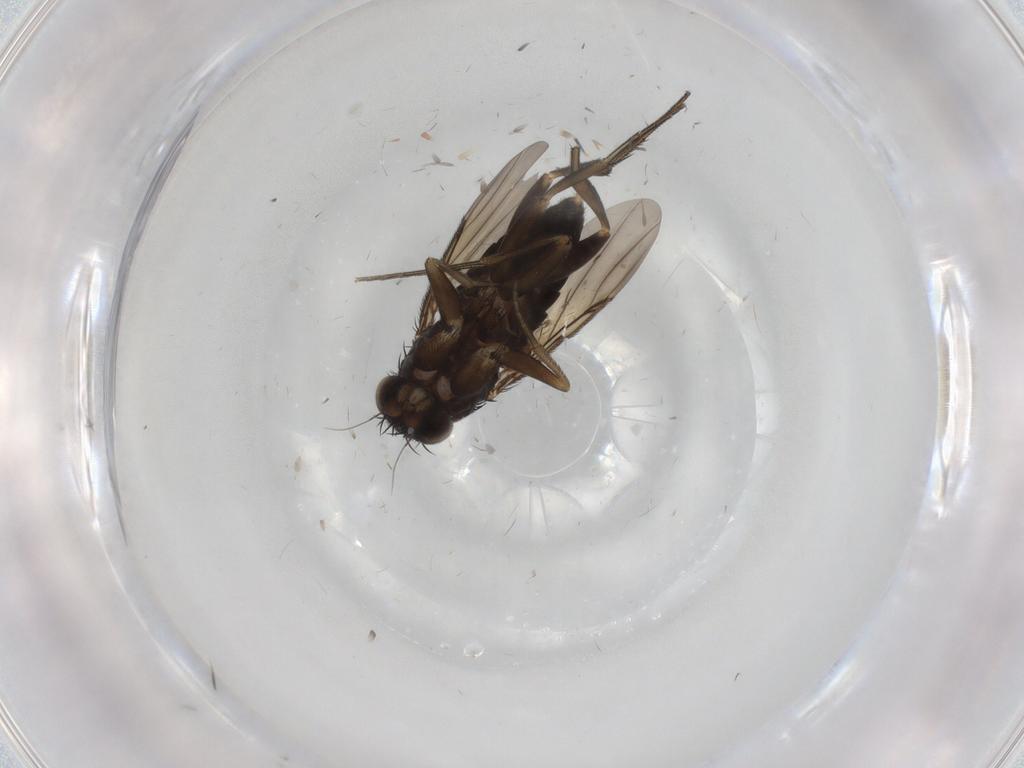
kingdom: Animalia
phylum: Arthropoda
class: Insecta
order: Diptera
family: Phoridae
